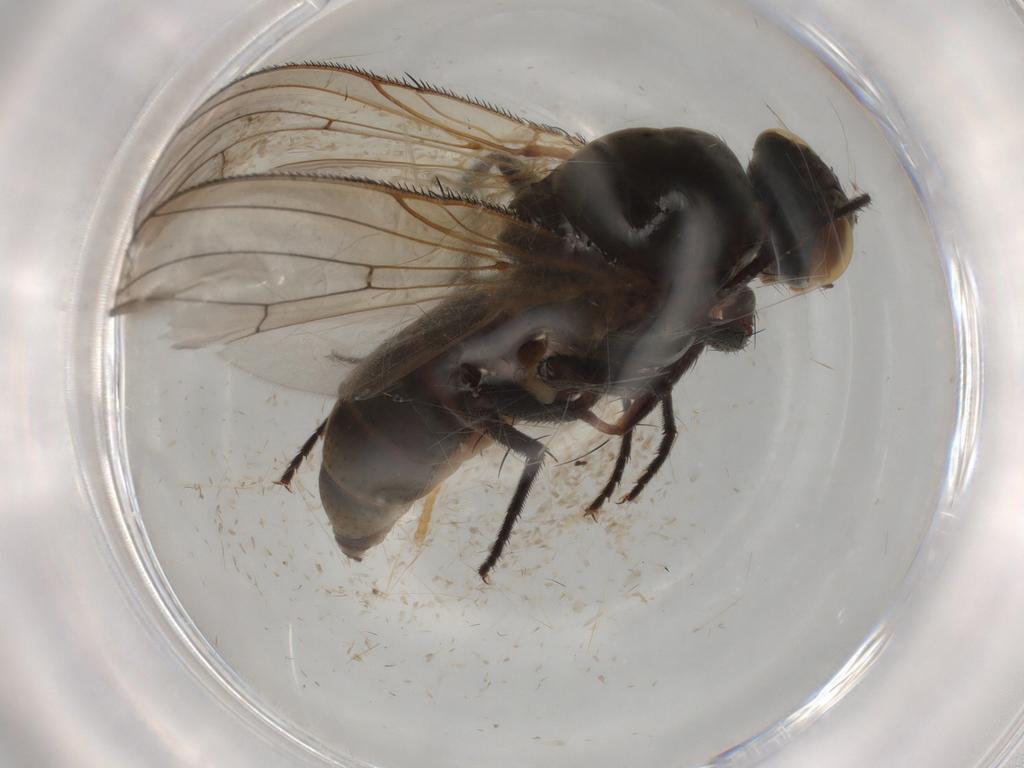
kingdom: Animalia
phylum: Arthropoda
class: Insecta
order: Diptera
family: Anthomyiidae
